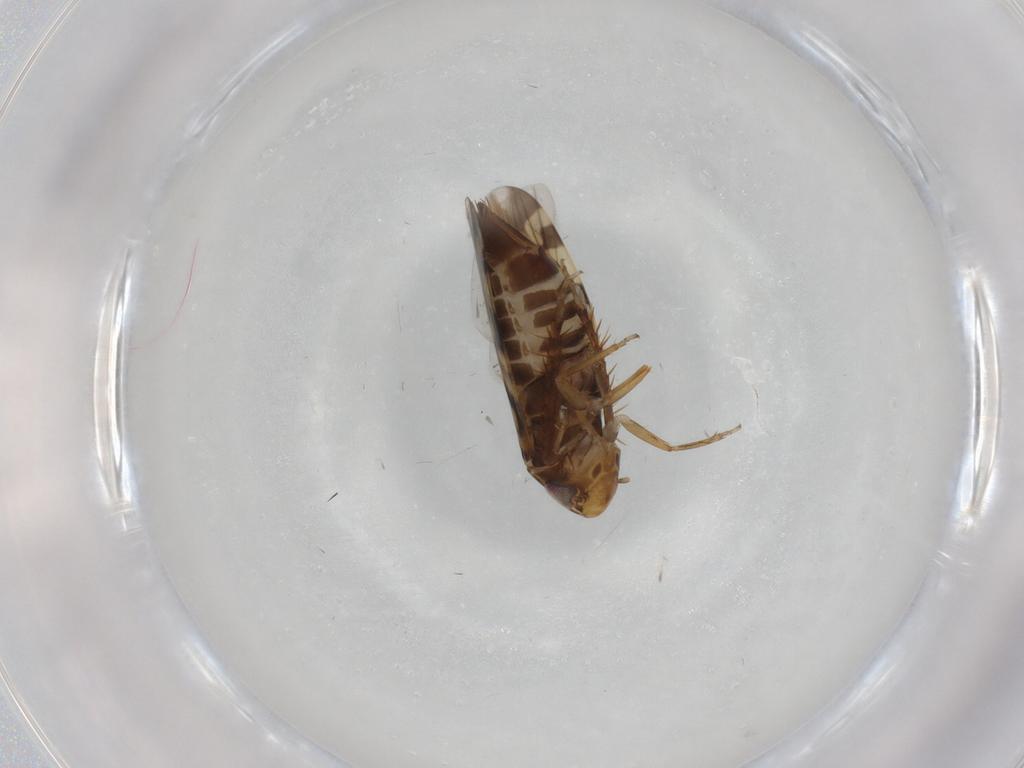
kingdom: Animalia
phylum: Arthropoda
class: Insecta
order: Hemiptera
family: Cicadellidae
